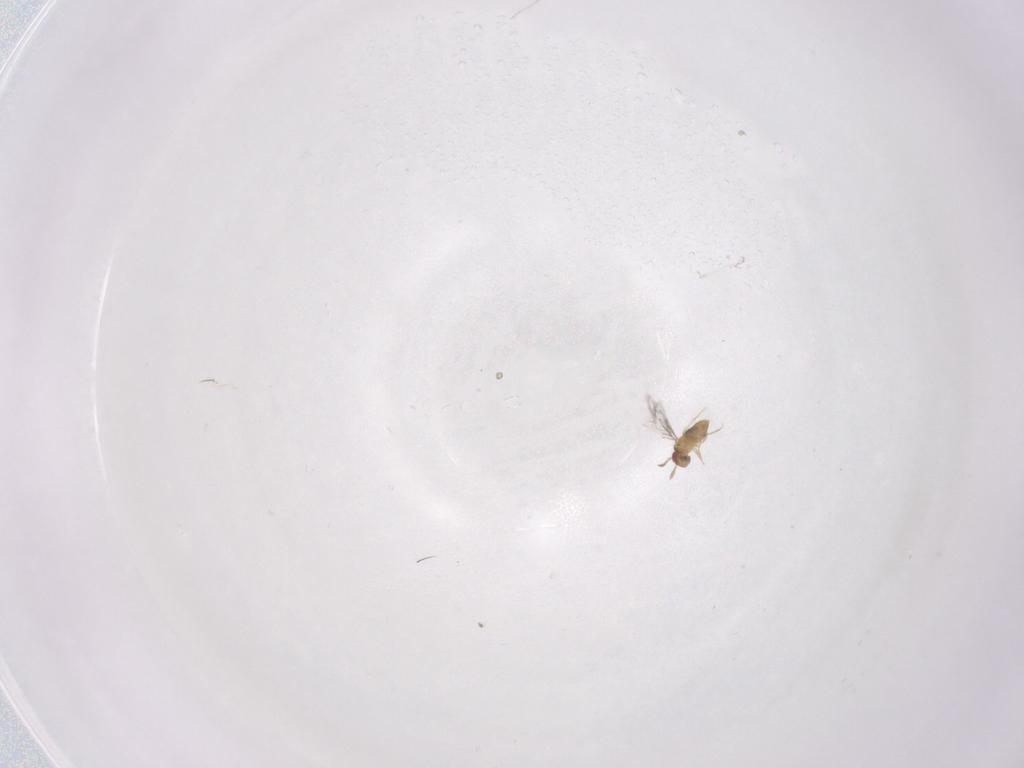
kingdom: Animalia
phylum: Arthropoda
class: Insecta
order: Hymenoptera
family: Trichogrammatidae
